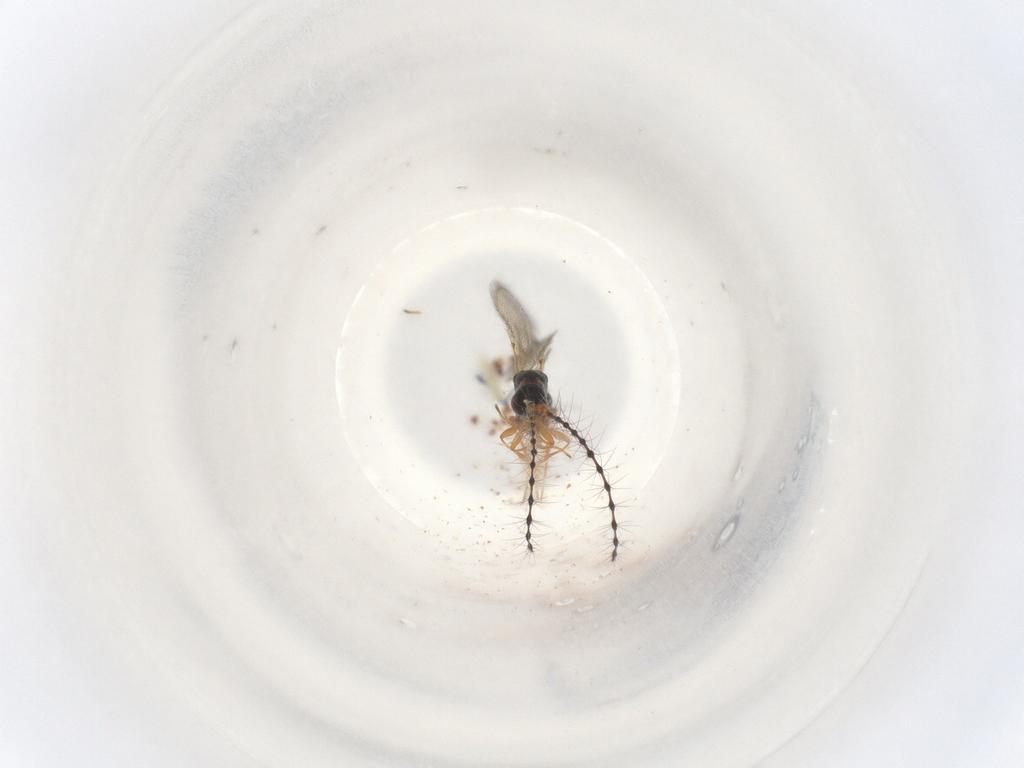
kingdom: Animalia
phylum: Arthropoda
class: Insecta
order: Hymenoptera
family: Diapriidae
